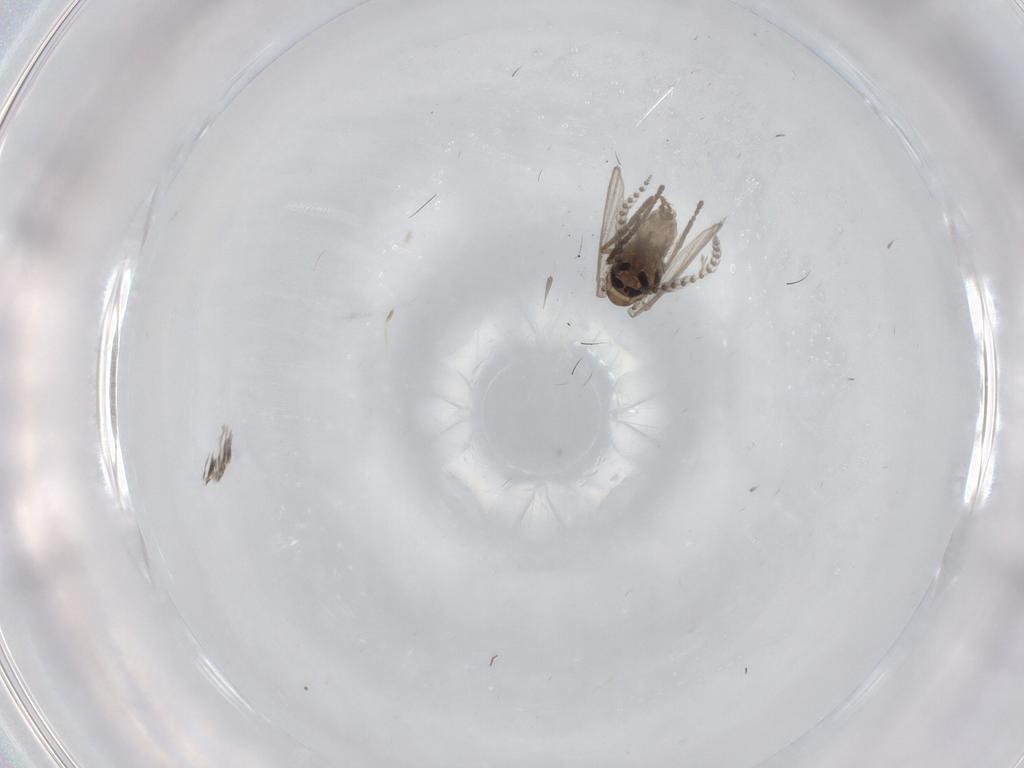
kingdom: Animalia
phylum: Arthropoda
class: Insecta
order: Diptera
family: Psychodidae
